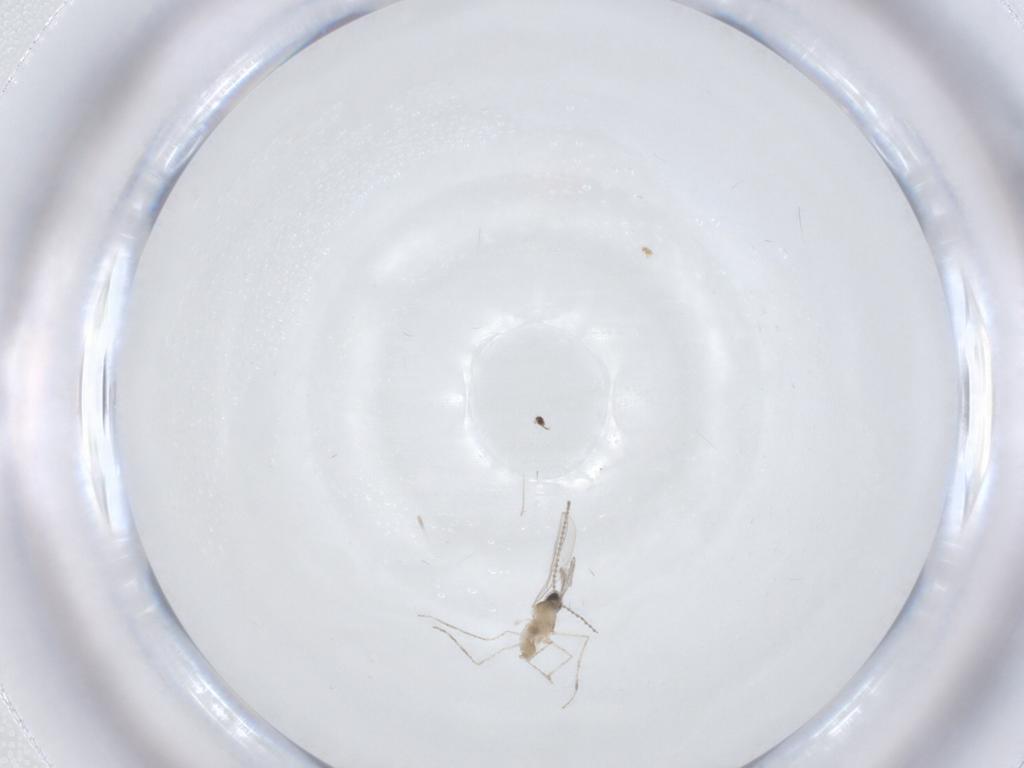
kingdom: Animalia
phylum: Arthropoda
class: Insecta
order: Diptera
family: Cecidomyiidae
